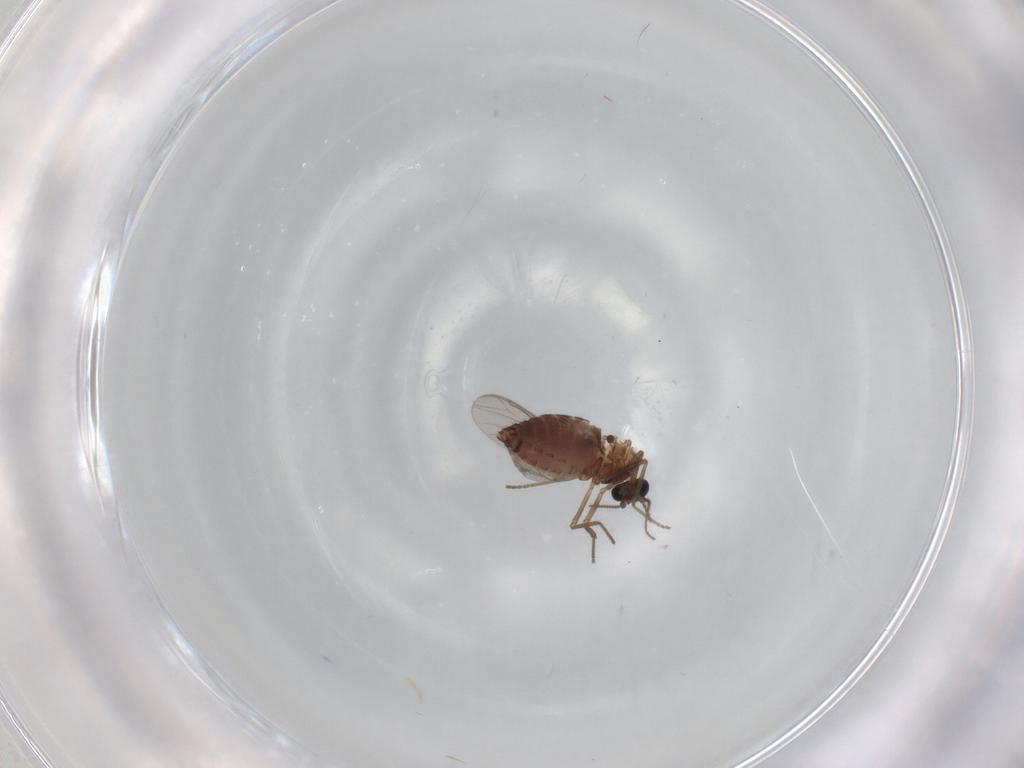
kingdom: Animalia
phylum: Arthropoda
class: Insecta
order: Diptera
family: Ceratopogonidae
